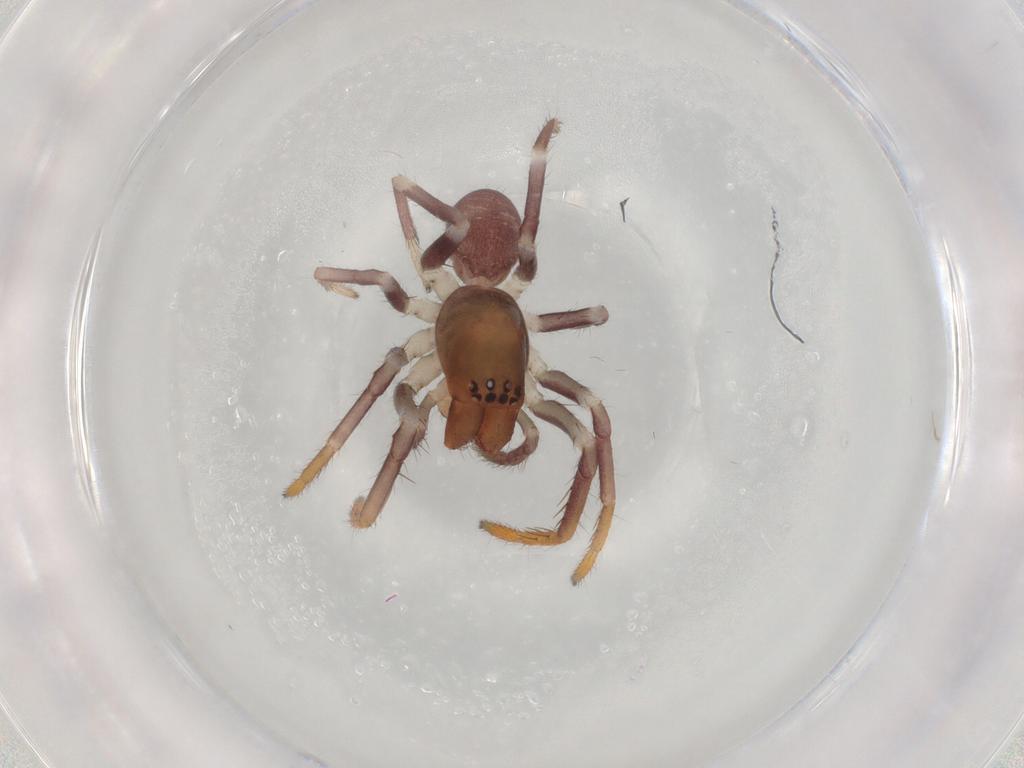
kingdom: Animalia
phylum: Arthropoda
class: Arachnida
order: Araneae
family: Corinnidae
